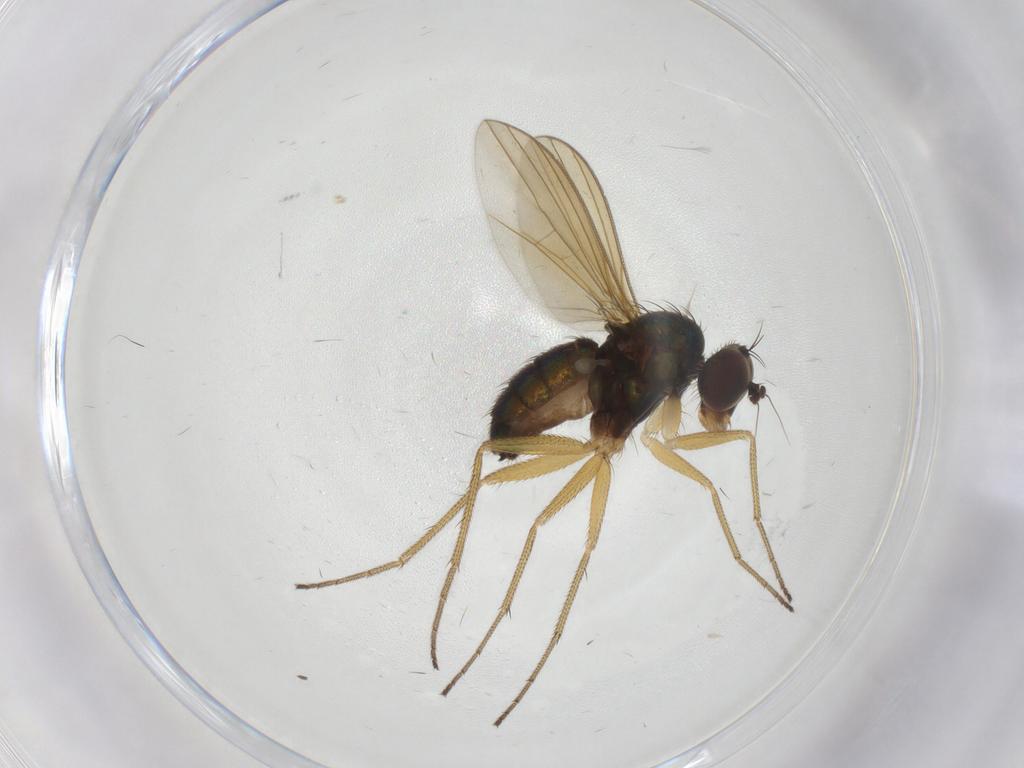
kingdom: Animalia
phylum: Arthropoda
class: Insecta
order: Diptera
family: Dolichopodidae
